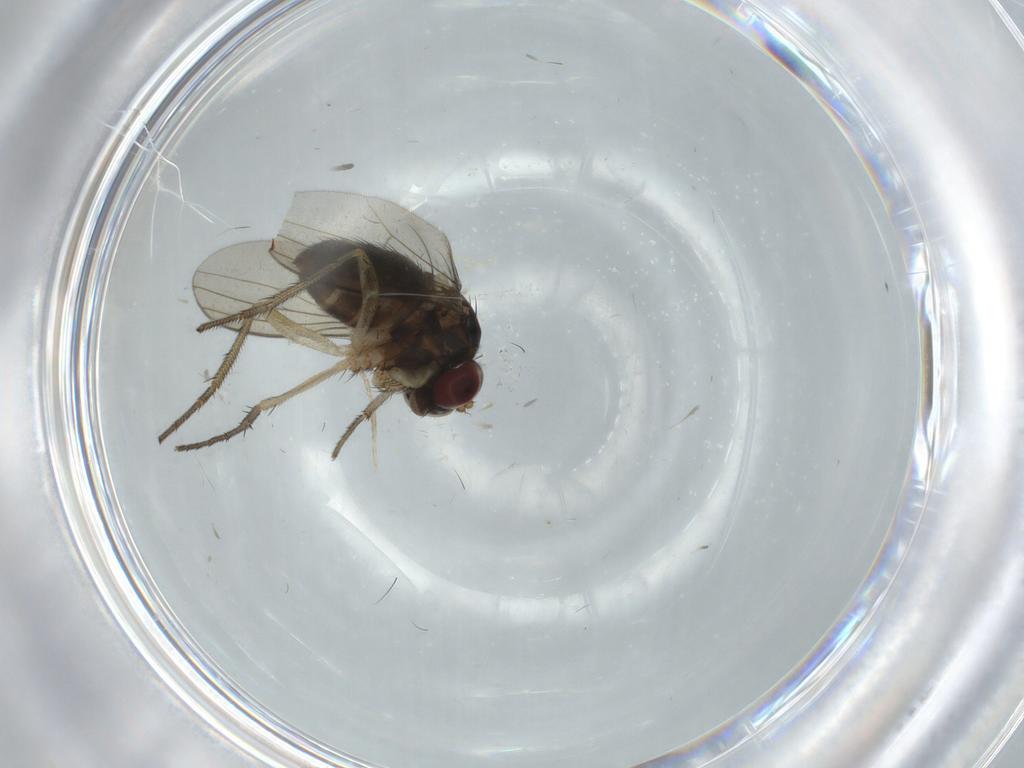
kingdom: Animalia
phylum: Arthropoda
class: Insecta
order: Diptera
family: Dolichopodidae
